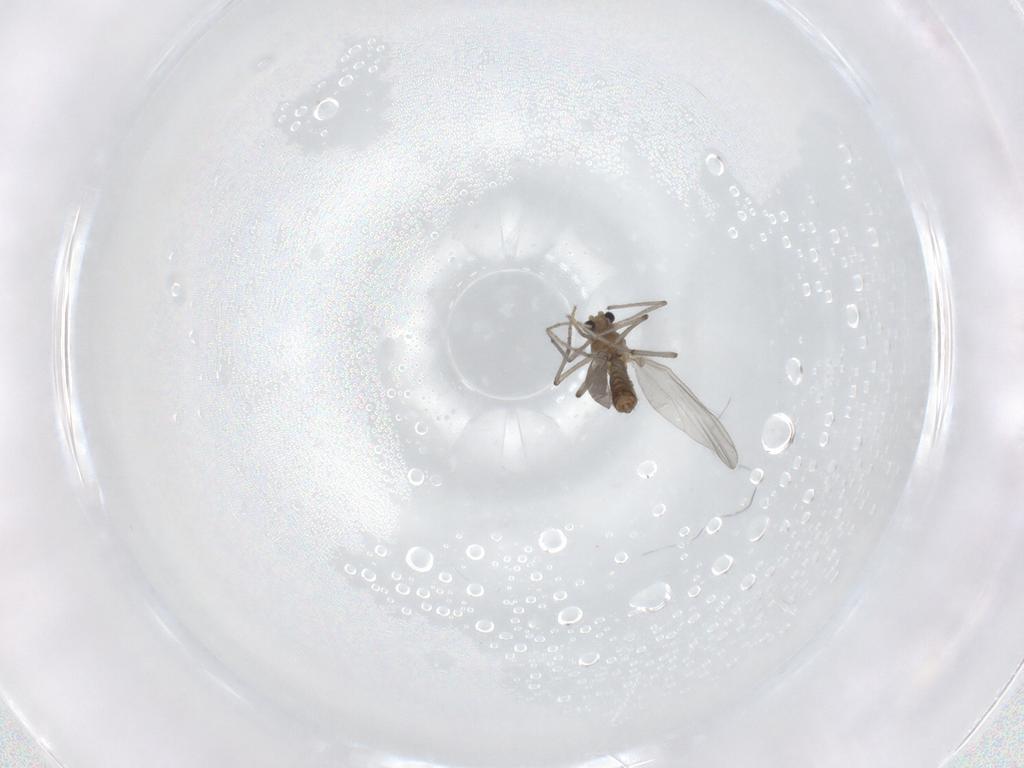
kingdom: Animalia
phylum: Arthropoda
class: Insecta
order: Diptera
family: Chironomidae
